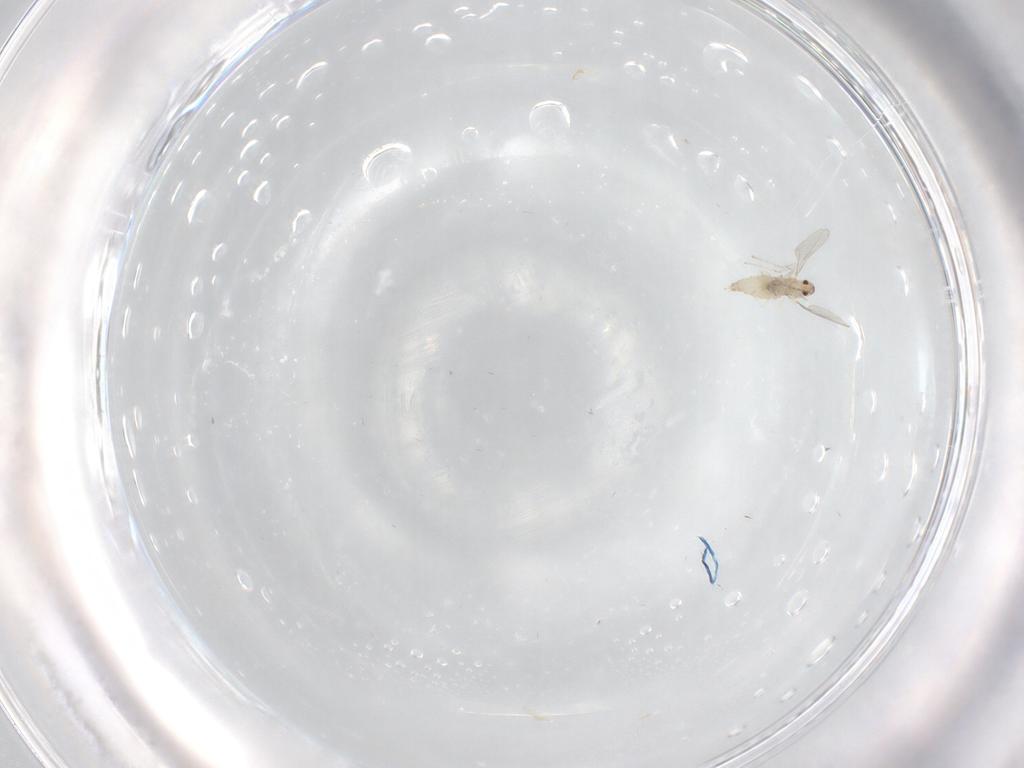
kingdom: Animalia
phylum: Arthropoda
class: Insecta
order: Diptera
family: Cecidomyiidae
